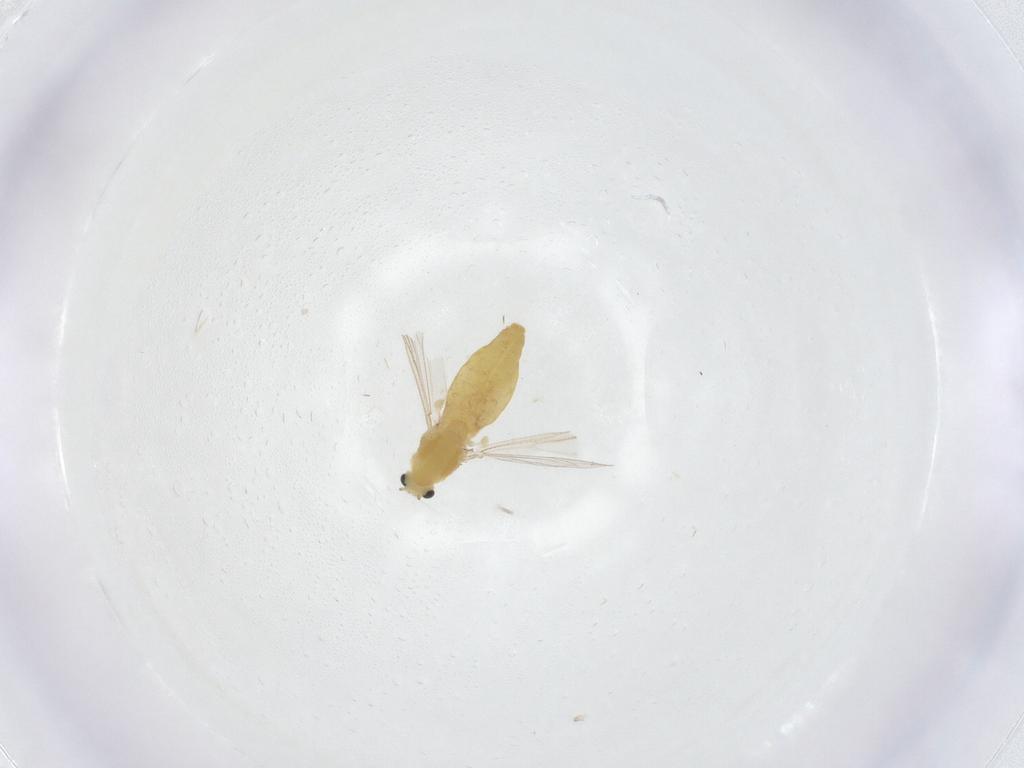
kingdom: Animalia
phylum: Arthropoda
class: Insecta
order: Diptera
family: Chironomidae
